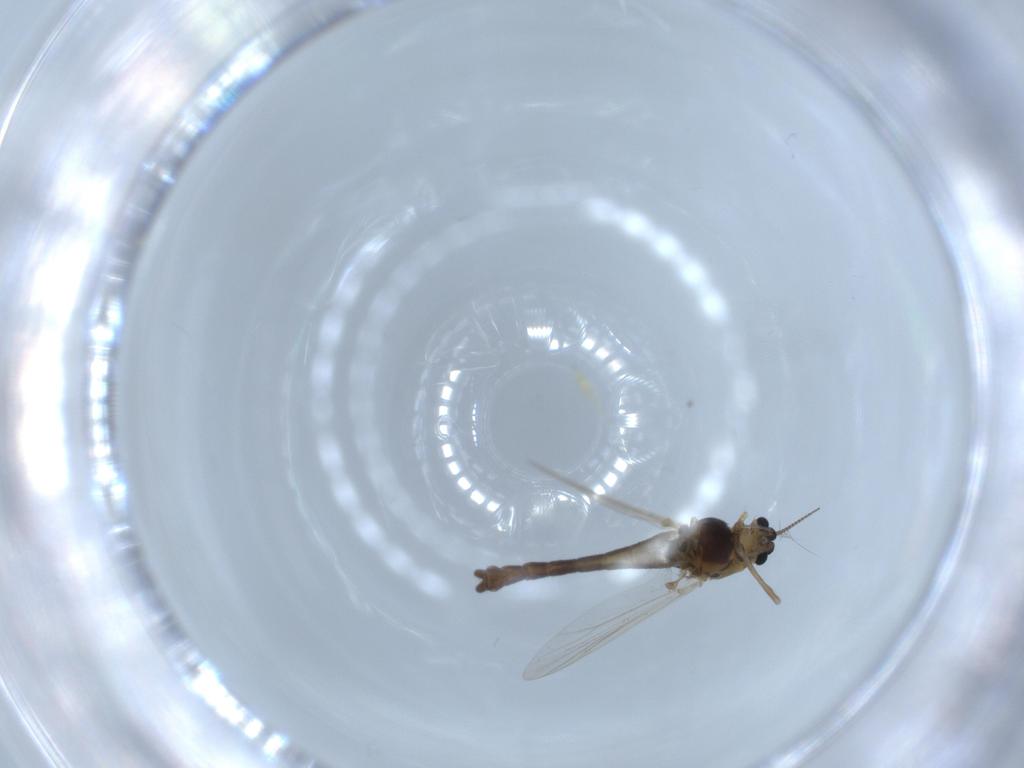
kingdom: Animalia
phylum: Arthropoda
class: Insecta
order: Diptera
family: Chironomidae
